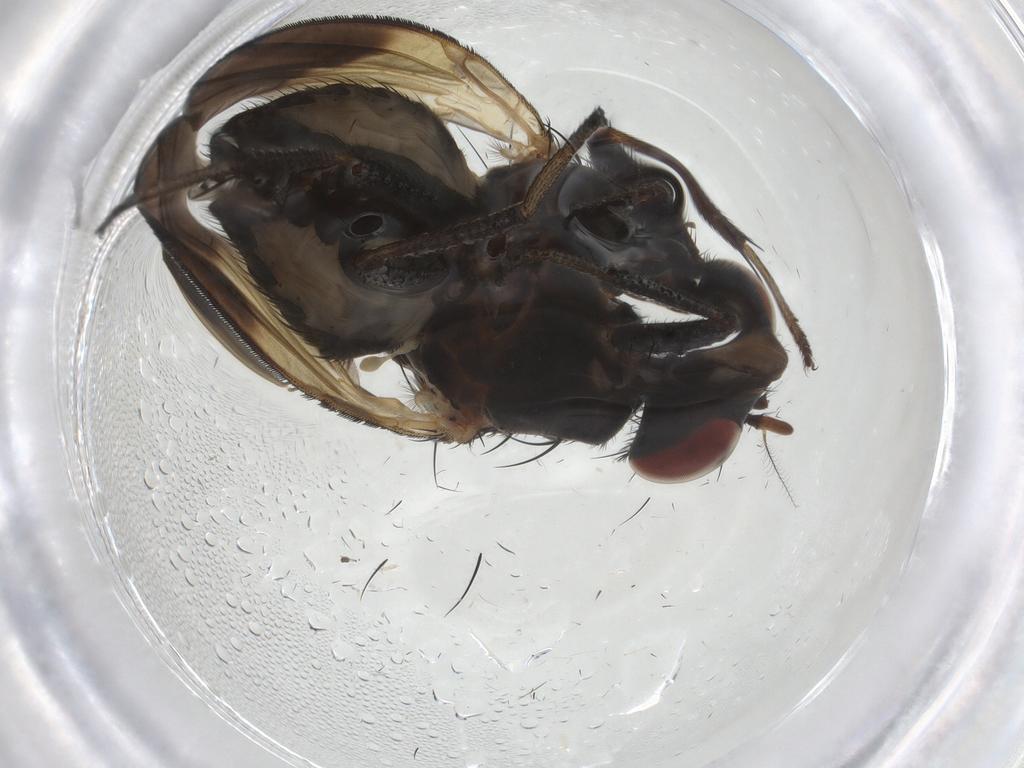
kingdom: Animalia
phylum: Arthropoda
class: Insecta
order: Diptera
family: Lauxaniidae
